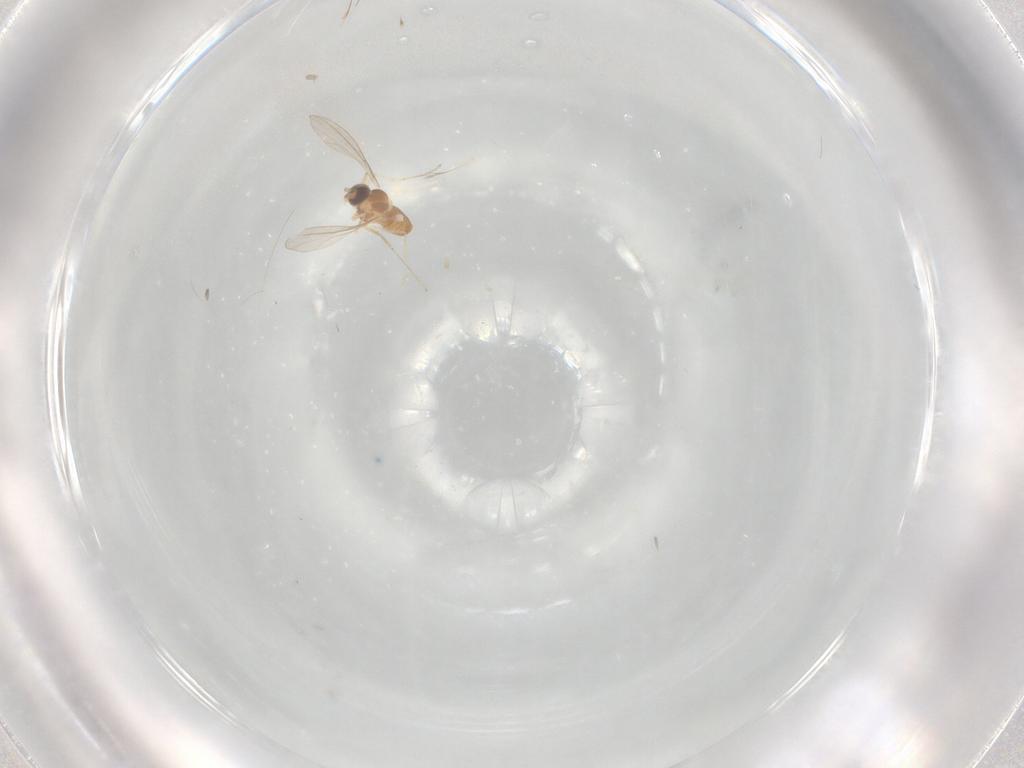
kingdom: Animalia
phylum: Arthropoda
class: Insecta
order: Diptera
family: Cecidomyiidae
